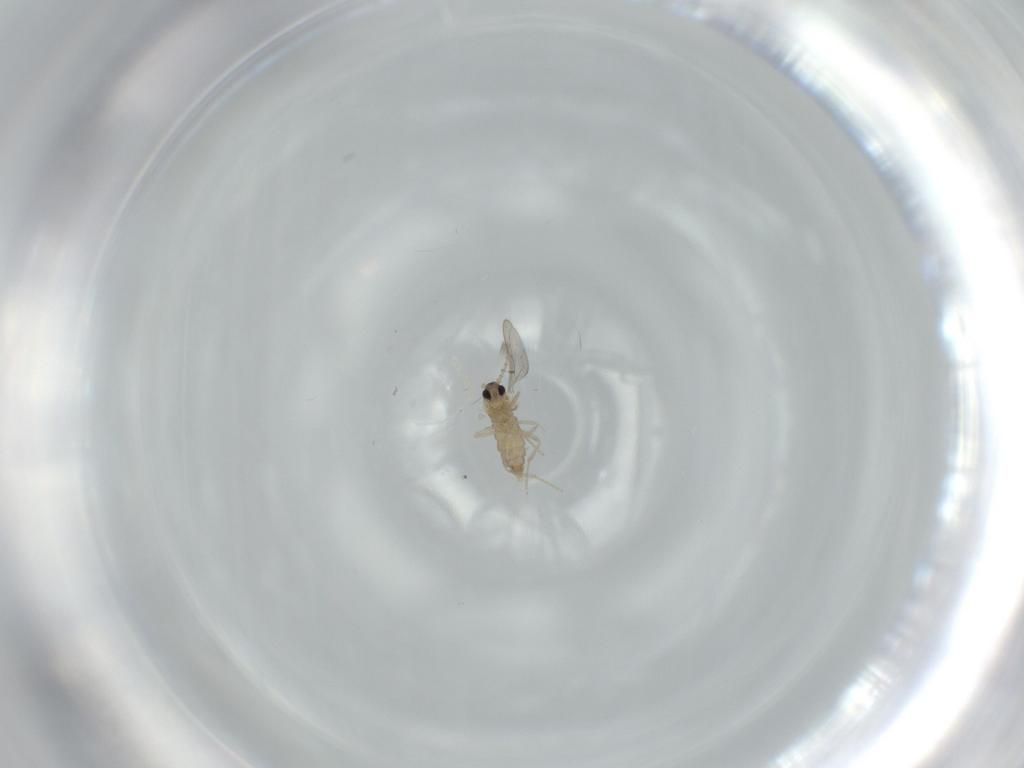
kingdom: Animalia
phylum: Arthropoda
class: Insecta
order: Diptera
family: Cecidomyiidae
